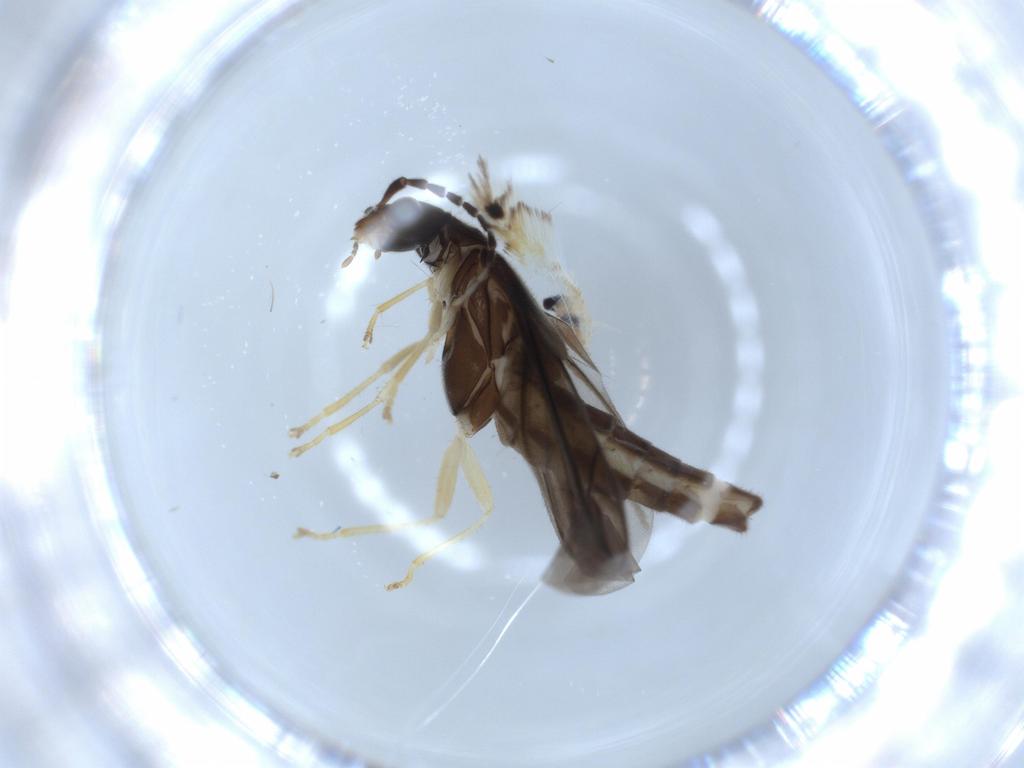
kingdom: Animalia
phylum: Arthropoda
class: Insecta
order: Coleoptera
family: Cantharidae
